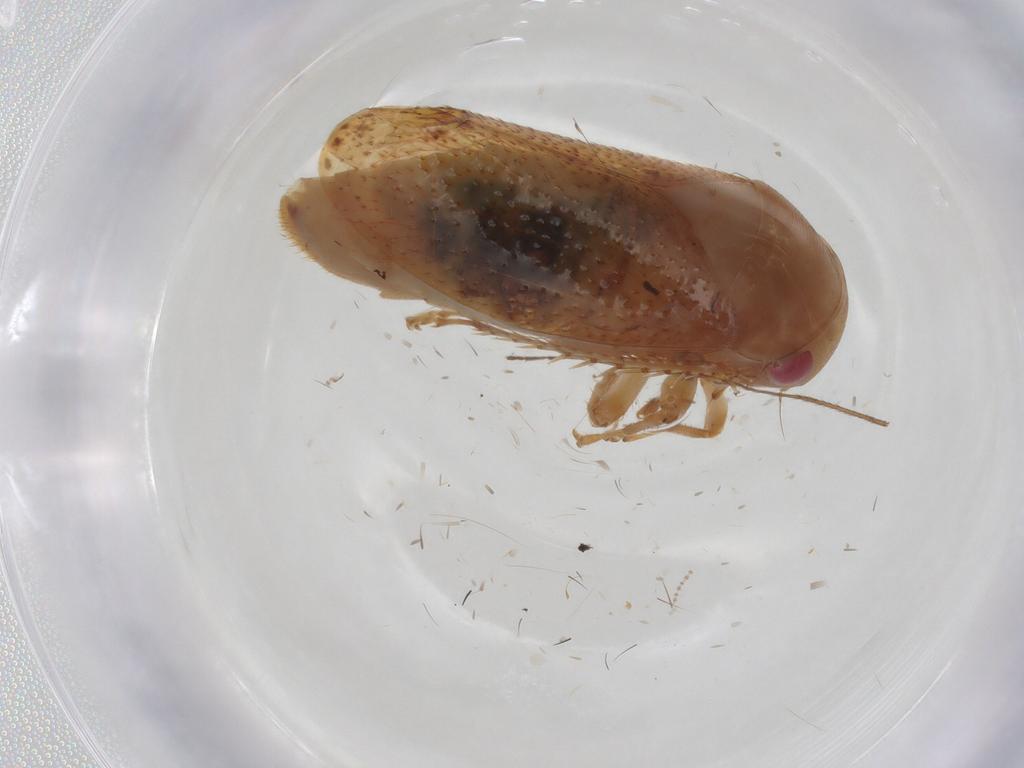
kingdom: Animalia
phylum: Arthropoda
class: Insecta
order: Hemiptera
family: Cicadellidae
